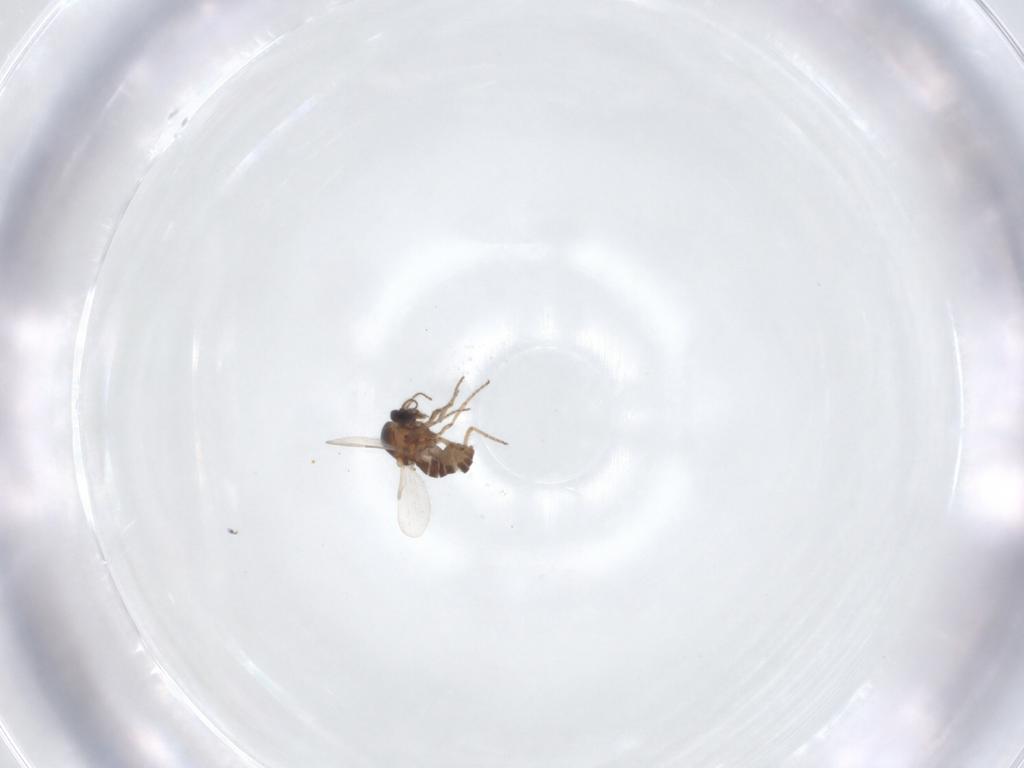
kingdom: Animalia
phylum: Arthropoda
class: Insecta
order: Diptera
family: Ceratopogonidae
